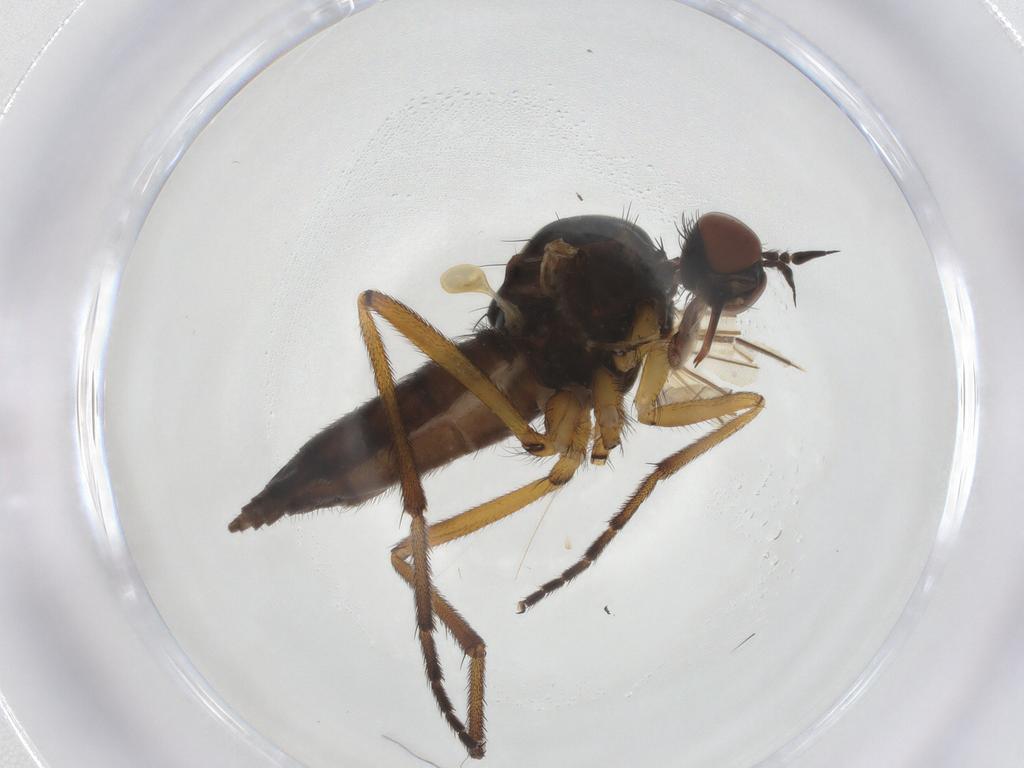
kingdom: Animalia
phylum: Arthropoda
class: Insecta
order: Diptera
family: Empididae
